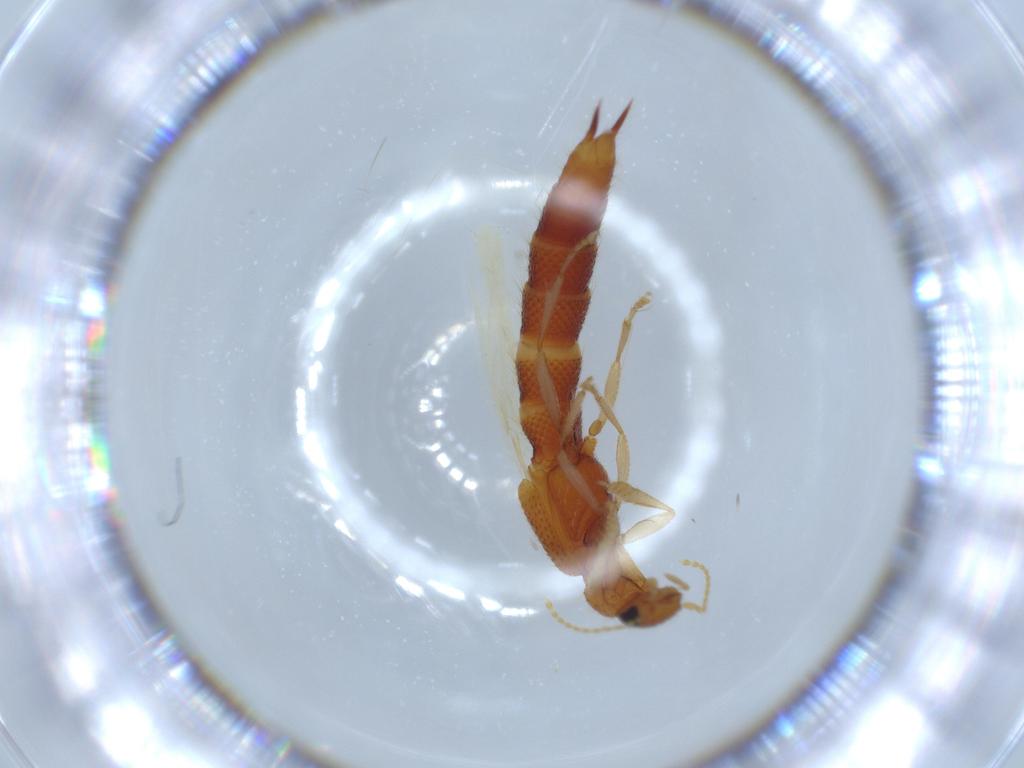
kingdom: Animalia
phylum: Arthropoda
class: Insecta
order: Coleoptera
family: Staphylinidae
